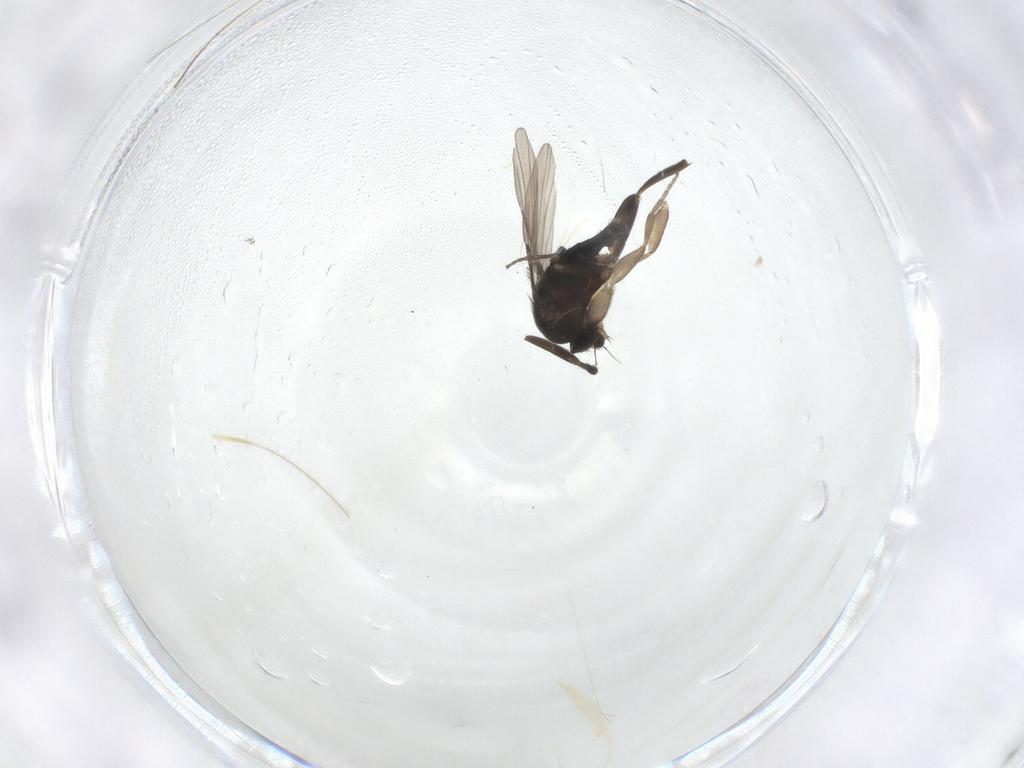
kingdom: Animalia
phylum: Arthropoda
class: Insecta
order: Diptera
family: Phoridae
